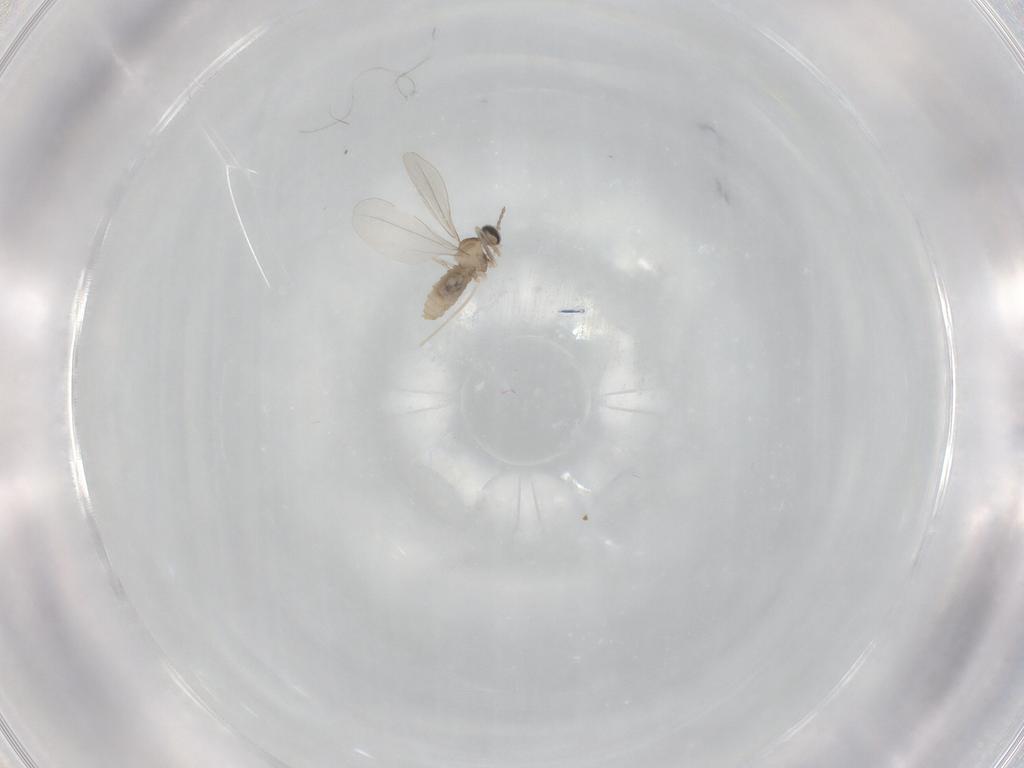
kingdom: Animalia
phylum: Arthropoda
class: Insecta
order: Diptera
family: Cecidomyiidae
